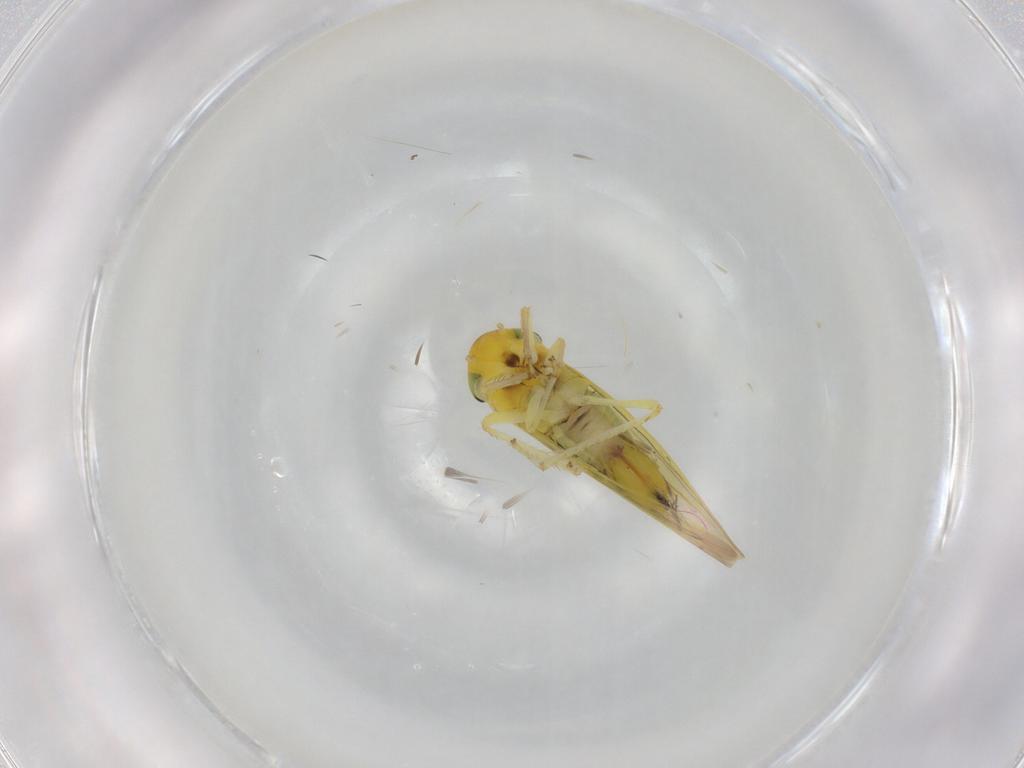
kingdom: Animalia
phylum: Arthropoda
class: Insecta
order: Hemiptera
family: Cicadellidae
